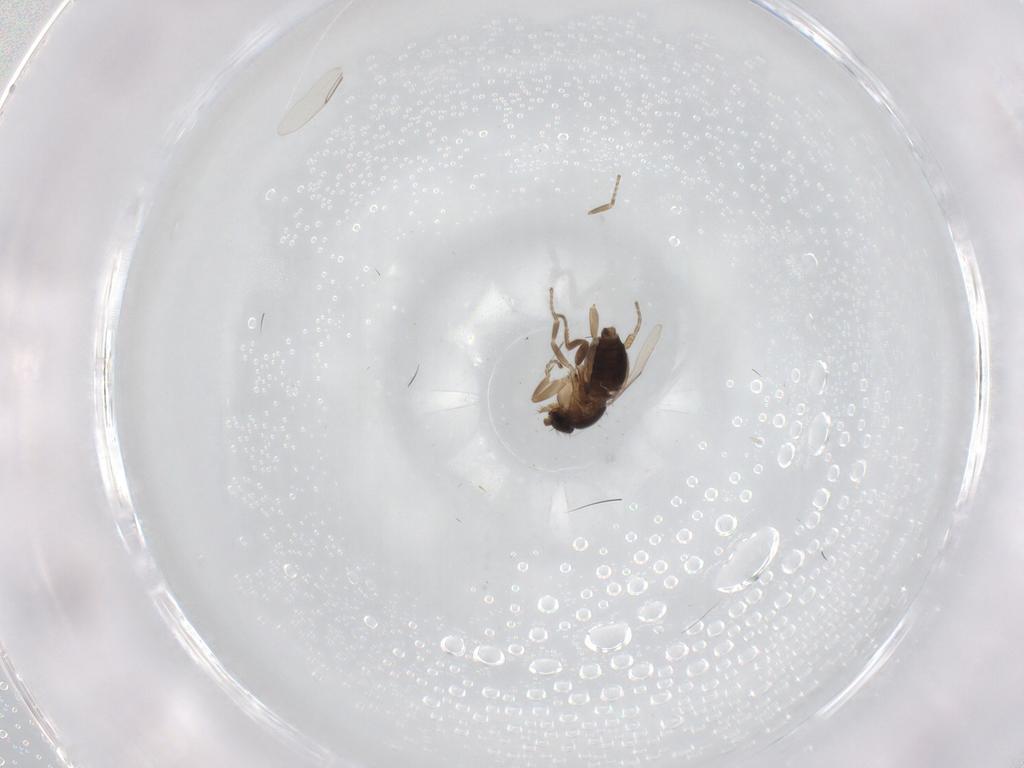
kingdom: Animalia
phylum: Arthropoda
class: Insecta
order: Diptera
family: Phoridae
